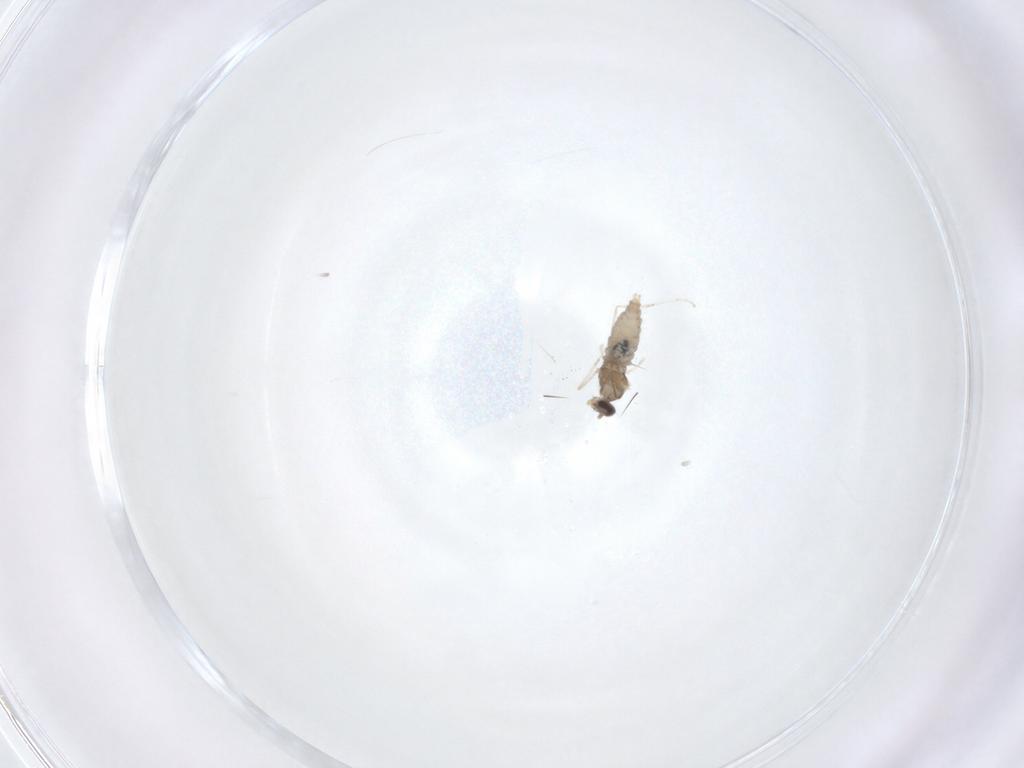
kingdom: Animalia
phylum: Arthropoda
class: Insecta
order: Diptera
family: Cecidomyiidae
